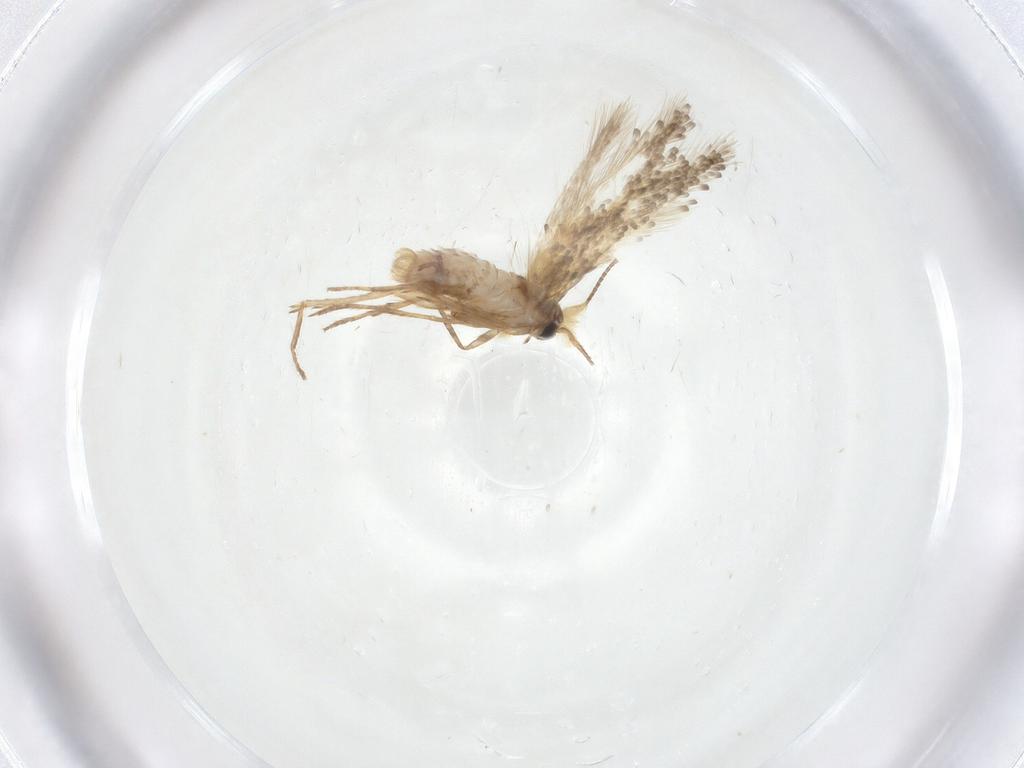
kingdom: Animalia
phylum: Arthropoda
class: Insecta
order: Lepidoptera
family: Nepticulidae
